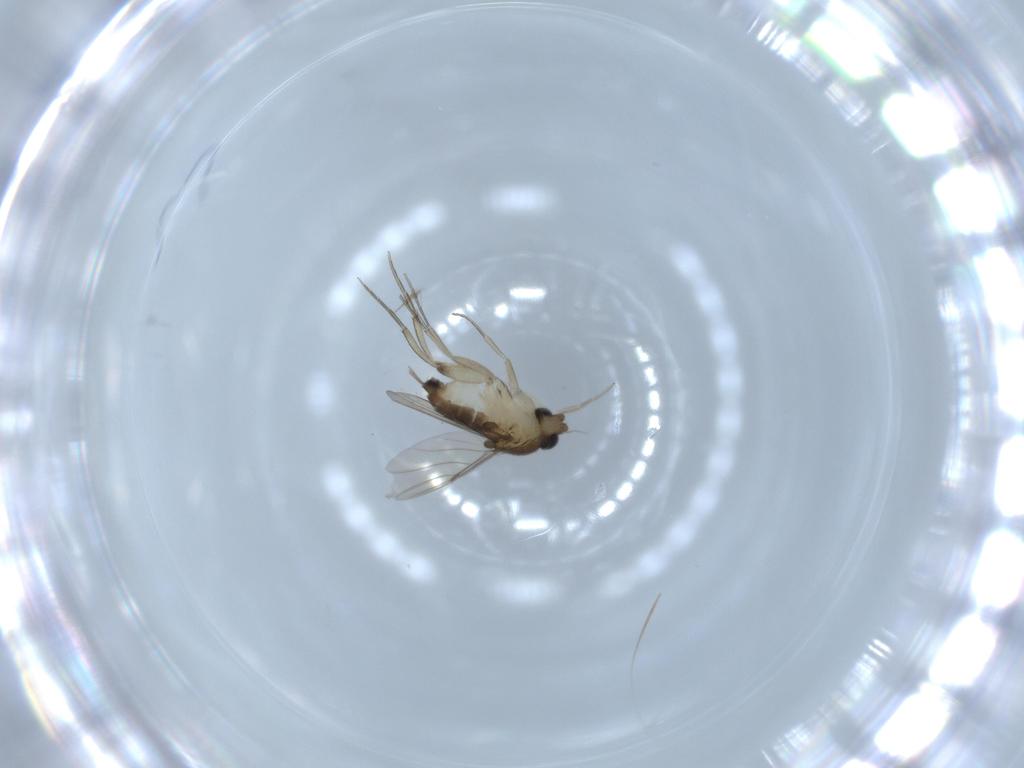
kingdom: Animalia
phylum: Arthropoda
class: Insecta
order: Diptera
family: Phoridae
